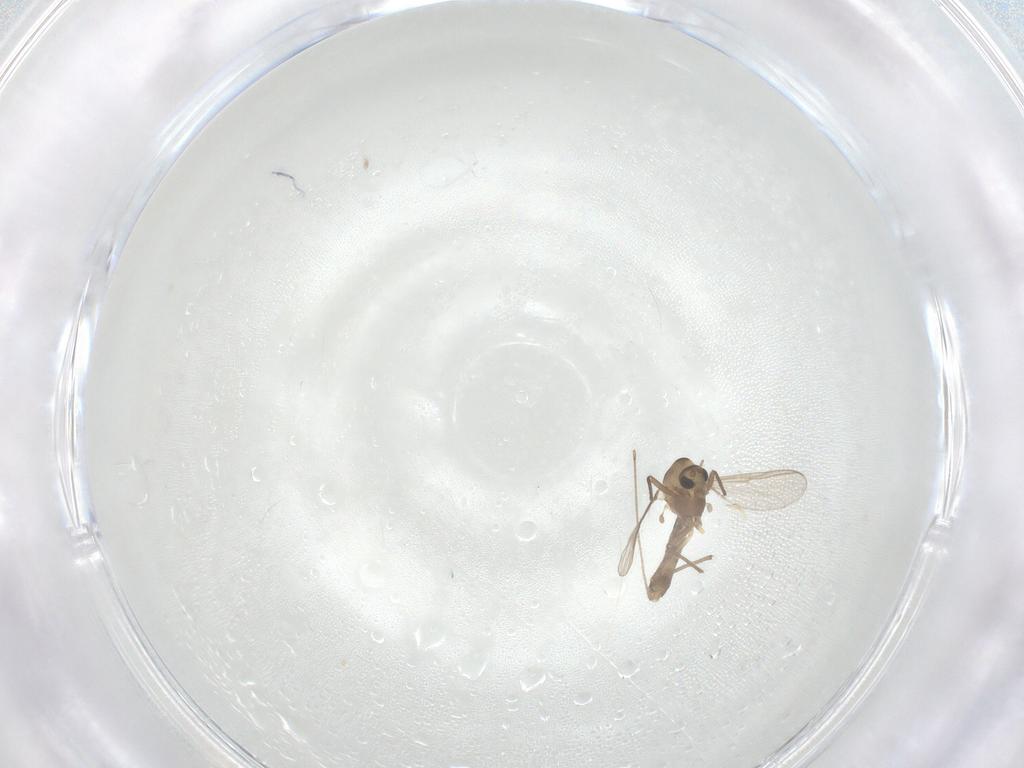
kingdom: Animalia
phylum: Arthropoda
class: Insecta
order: Diptera
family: Chironomidae
